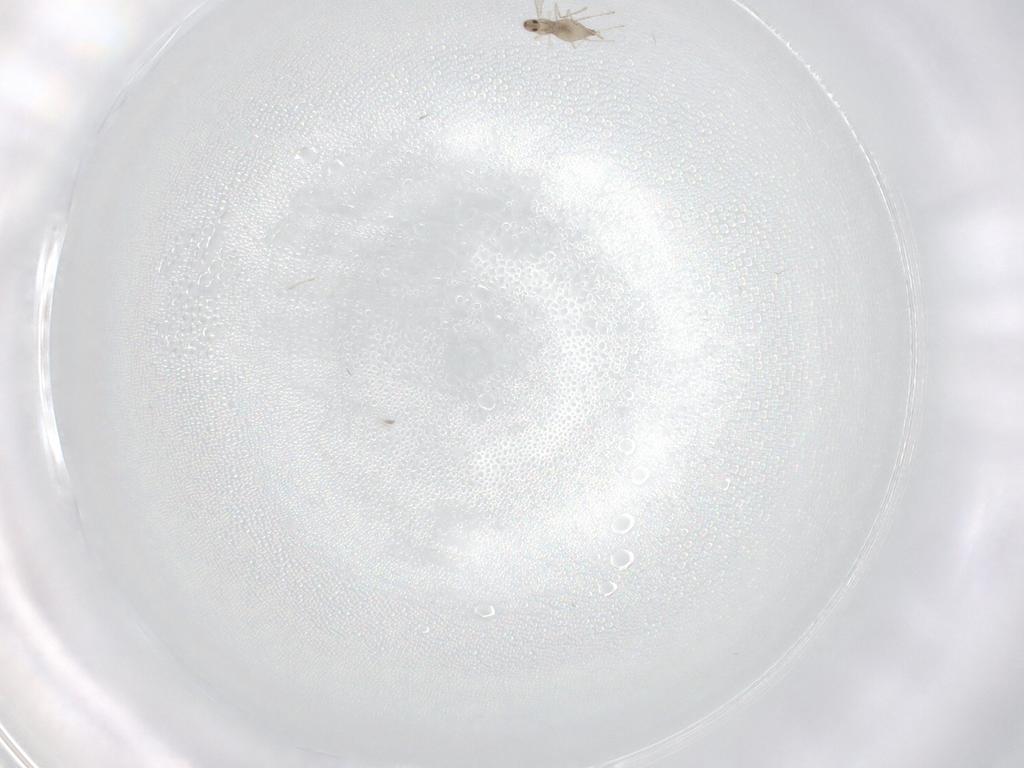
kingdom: Animalia
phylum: Arthropoda
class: Insecta
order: Diptera
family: Cecidomyiidae
